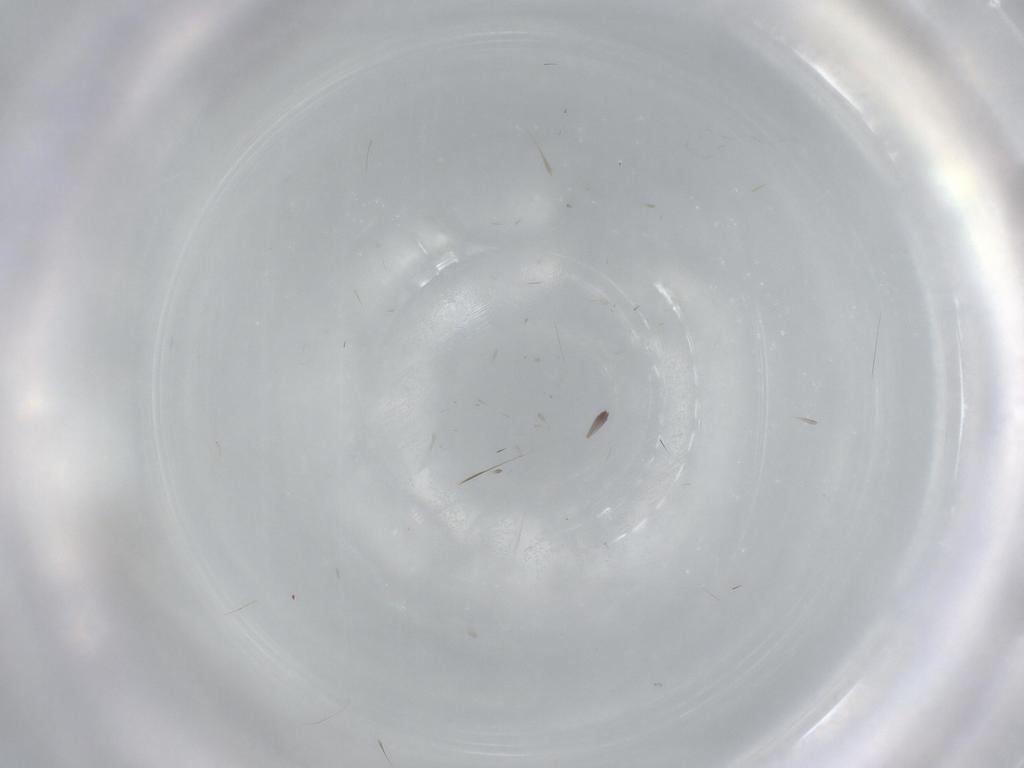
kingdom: Animalia
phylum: Arthropoda
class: Insecta
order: Diptera
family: Cecidomyiidae
